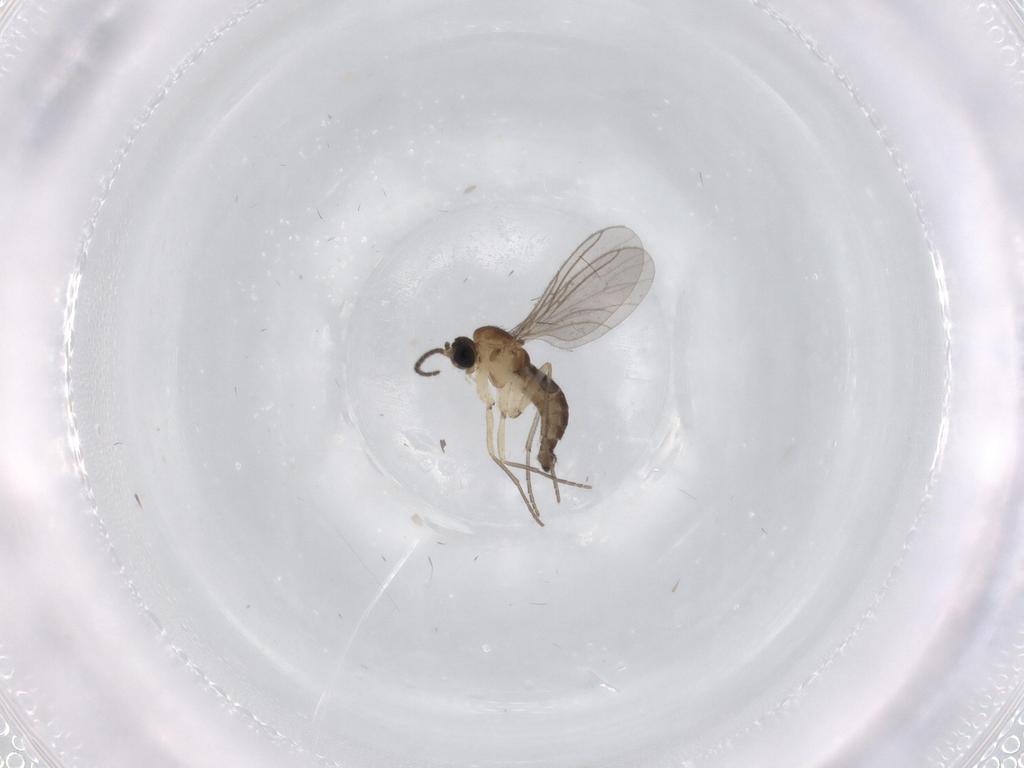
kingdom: Animalia
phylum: Arthropoda
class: Insecta
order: Diptera
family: Sciaridae
